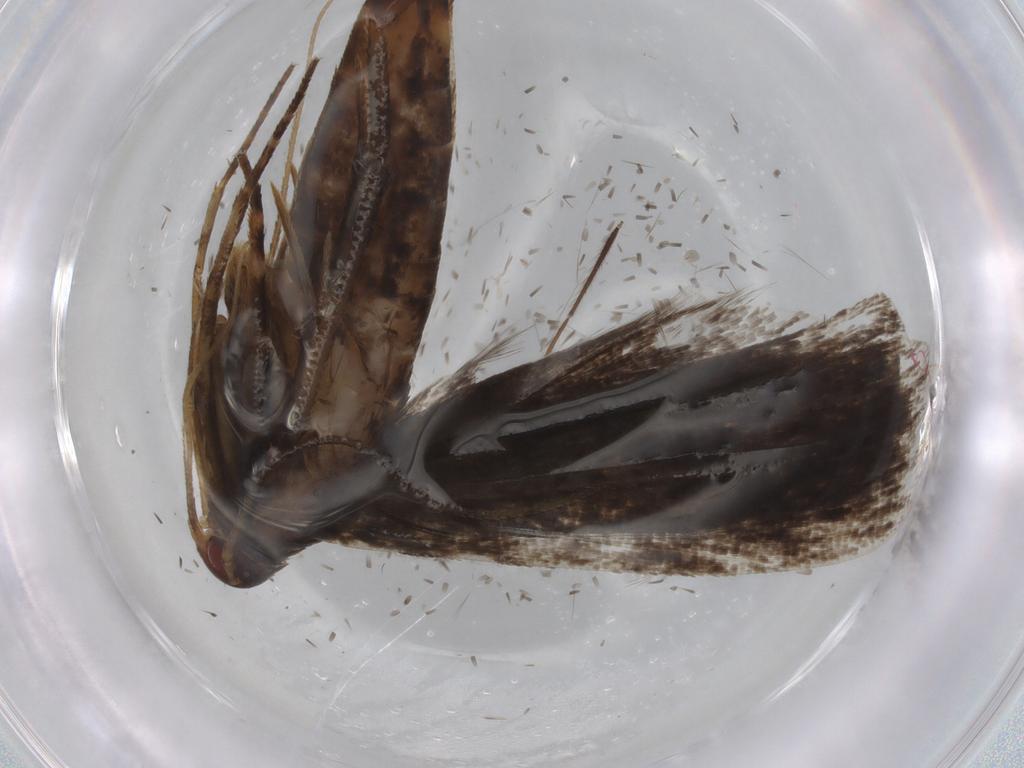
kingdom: Animalia
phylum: Arthropoda
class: Insecta
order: Lepidoptera
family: Scythrididae
